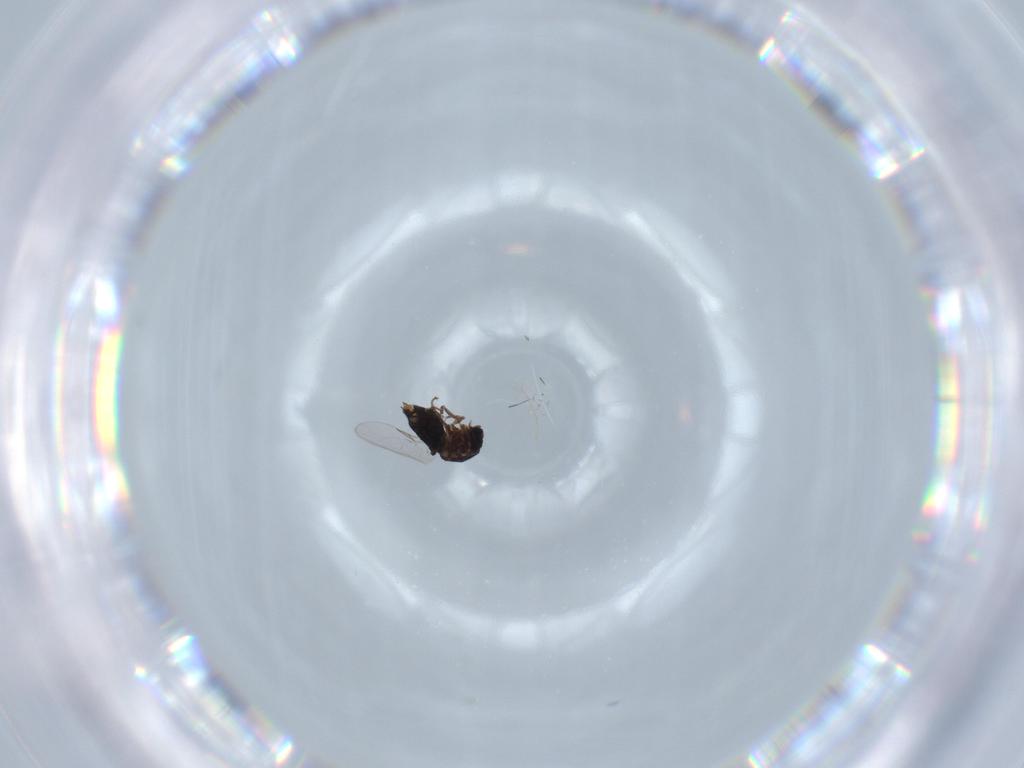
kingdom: Animalia
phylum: Arthropoda
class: Insecta
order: Diptera
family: Scatopsidae
